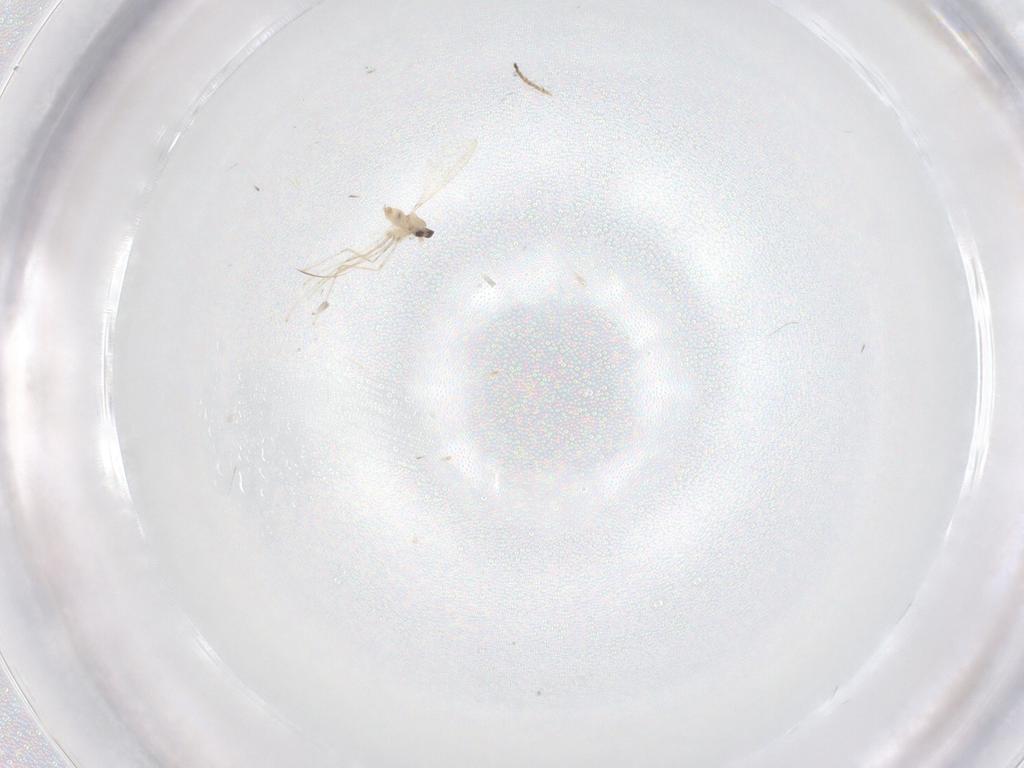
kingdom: Animalia
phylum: Arthropoda
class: Insecta
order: Diptera
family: Cecidomyiidae
